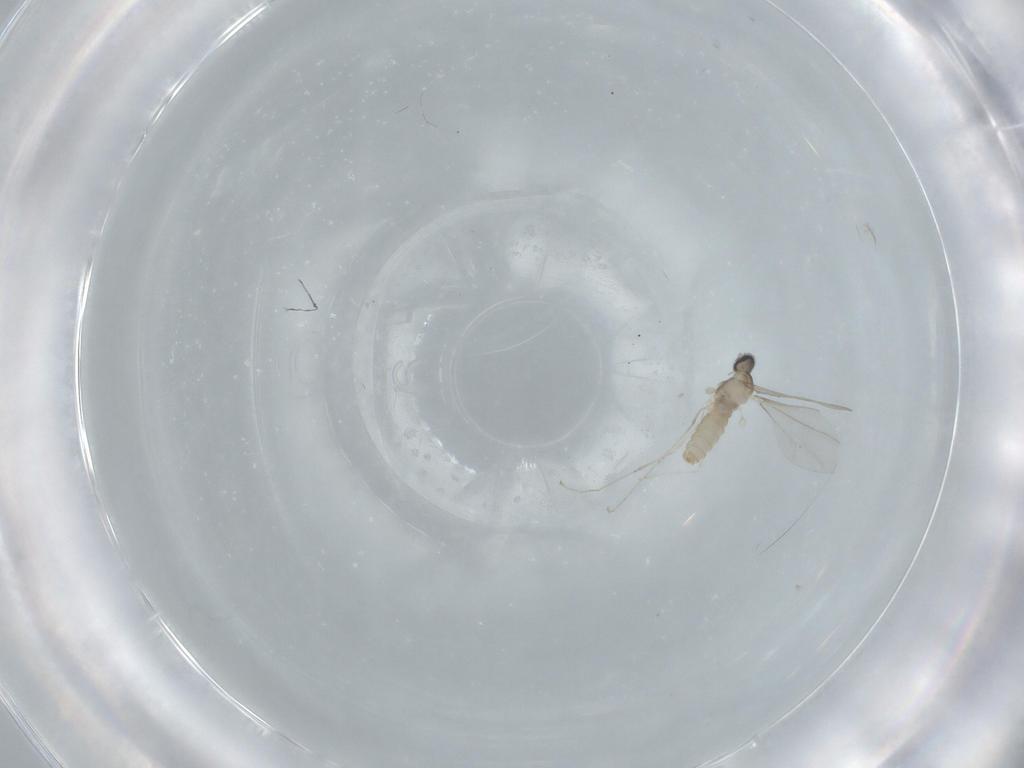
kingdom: Animalia
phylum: Arthropoda
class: Insecta
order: Diptera
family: Cecidomyiidae
